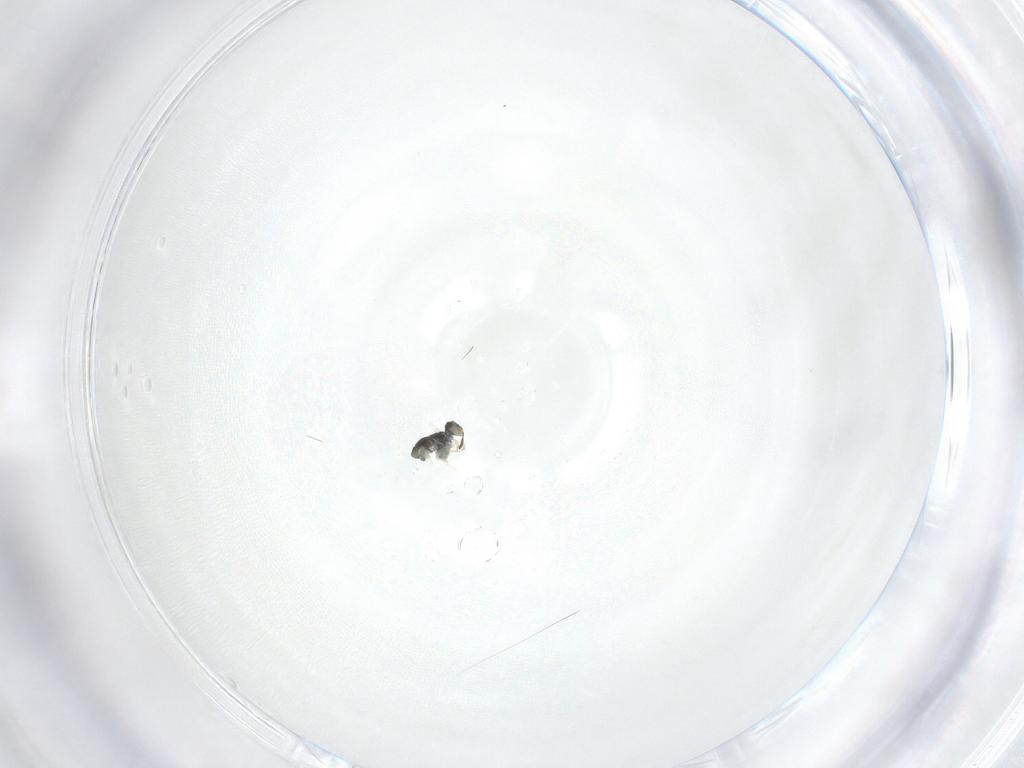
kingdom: Animalia
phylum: Arthropoda
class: Collembola
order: Symphypleona
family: Katiannidae
